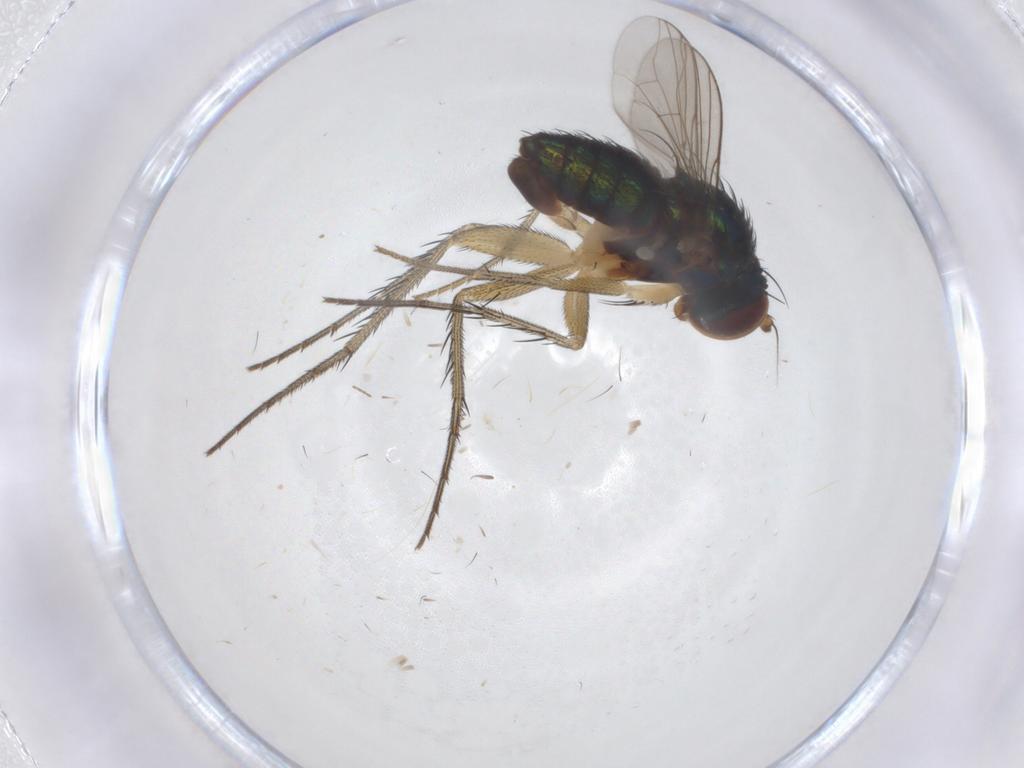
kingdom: Animalia
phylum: Arthropoda
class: Insecta
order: Diptera
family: Dolichopodidae
